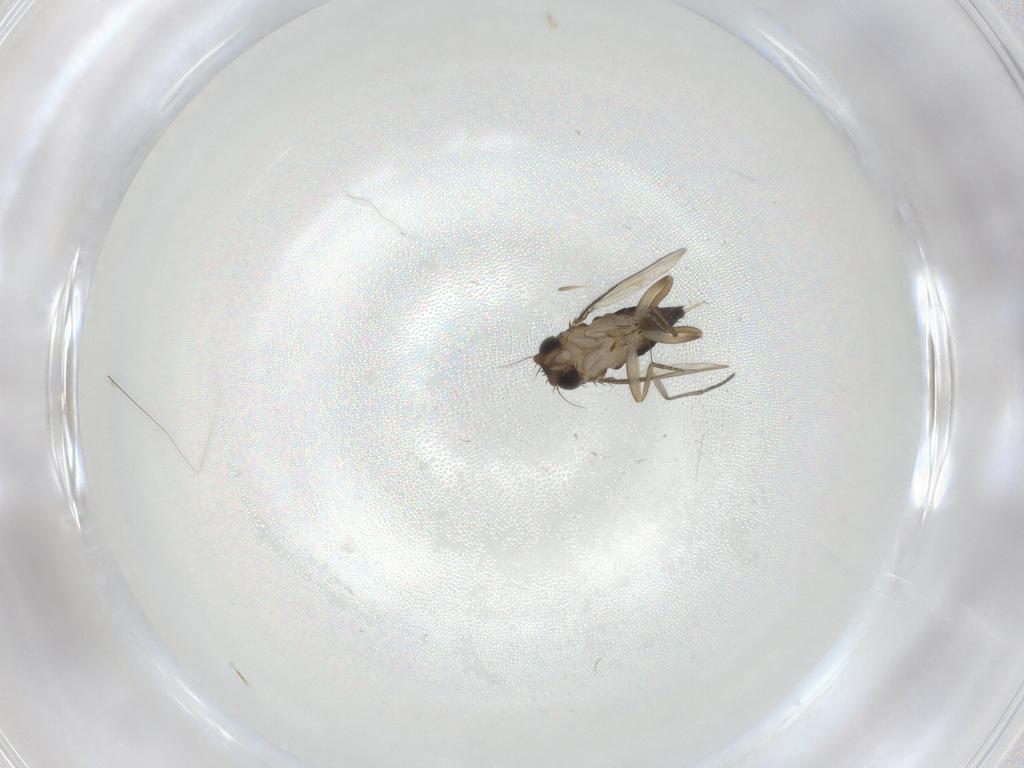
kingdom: Animalia
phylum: Arthropoda
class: Insecta
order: Diptera
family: Phoridae
